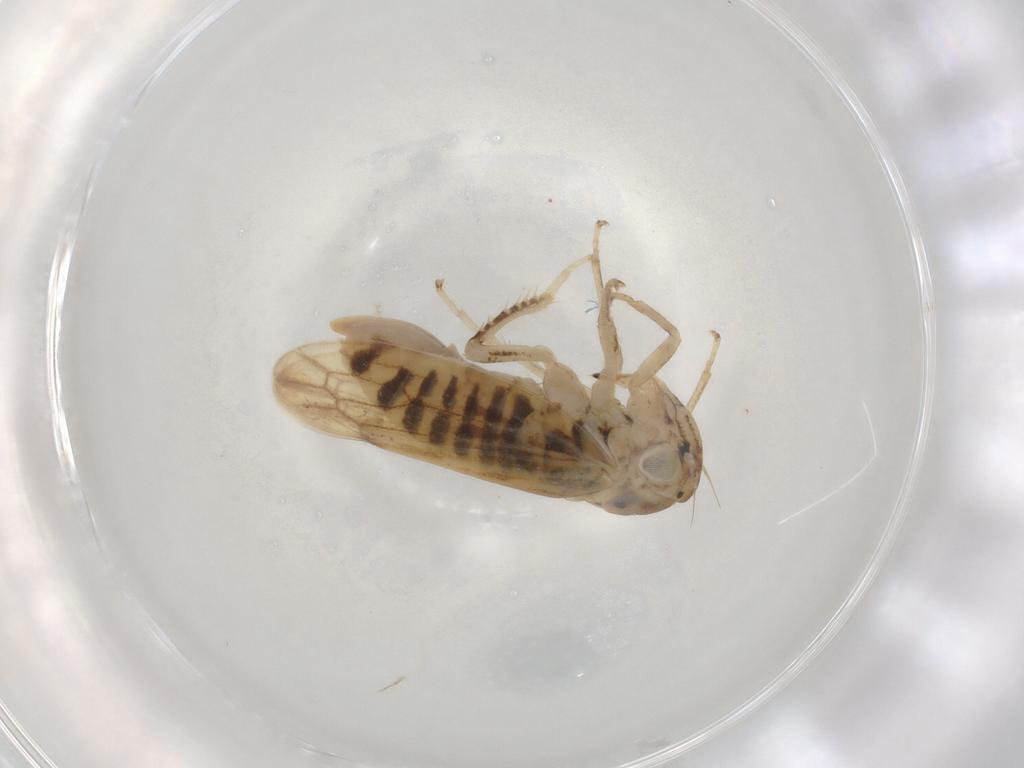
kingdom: Animalia
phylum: Arthropoda
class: Insecta
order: Hemiptera
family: Cicadellidae
